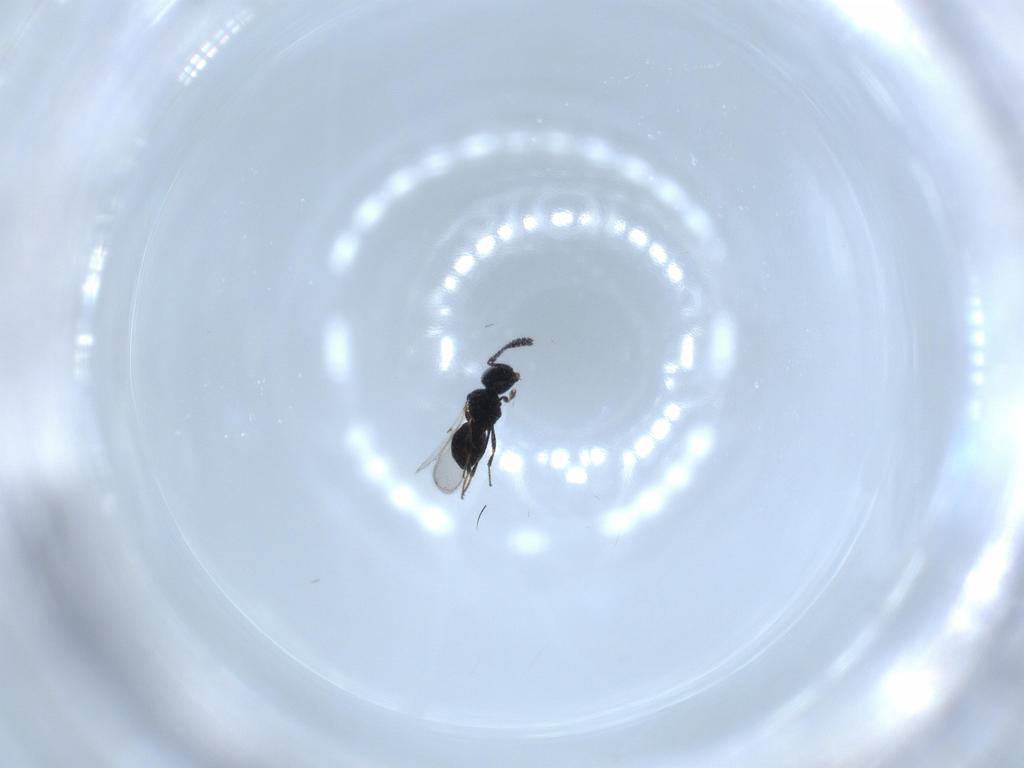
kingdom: Animalia
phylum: Arthropoda
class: Insecta
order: Hymenoptera
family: Scelionidae
